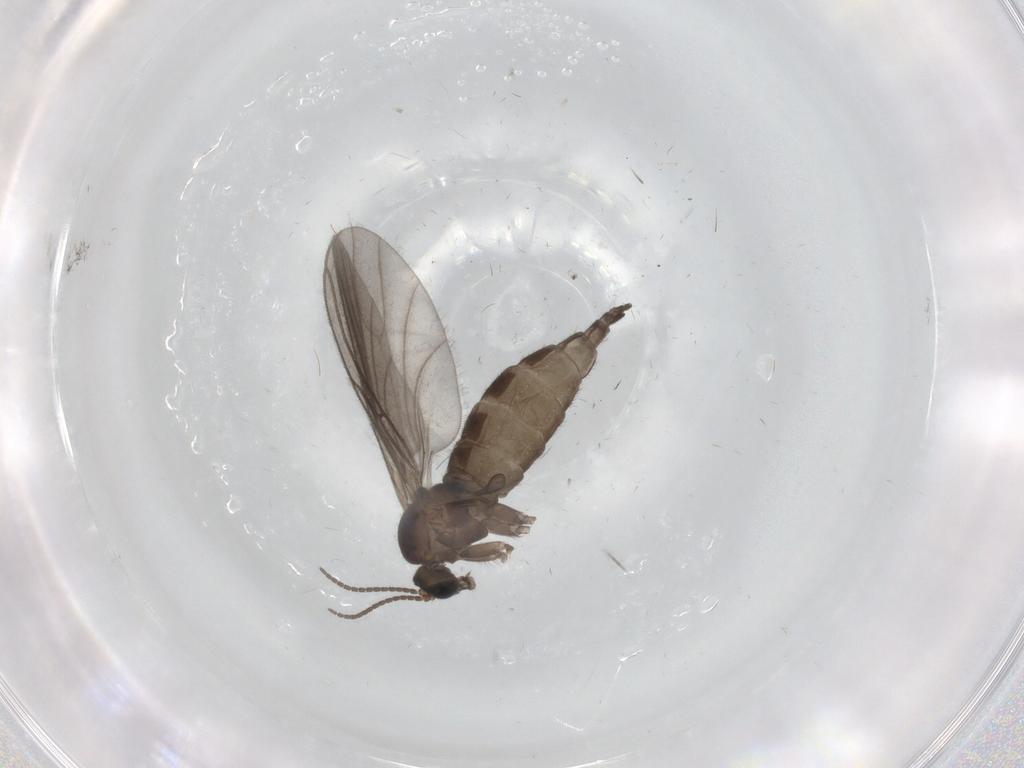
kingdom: Animalia
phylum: Arthropoda
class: Insecta
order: Diptera
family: Sciaridae
